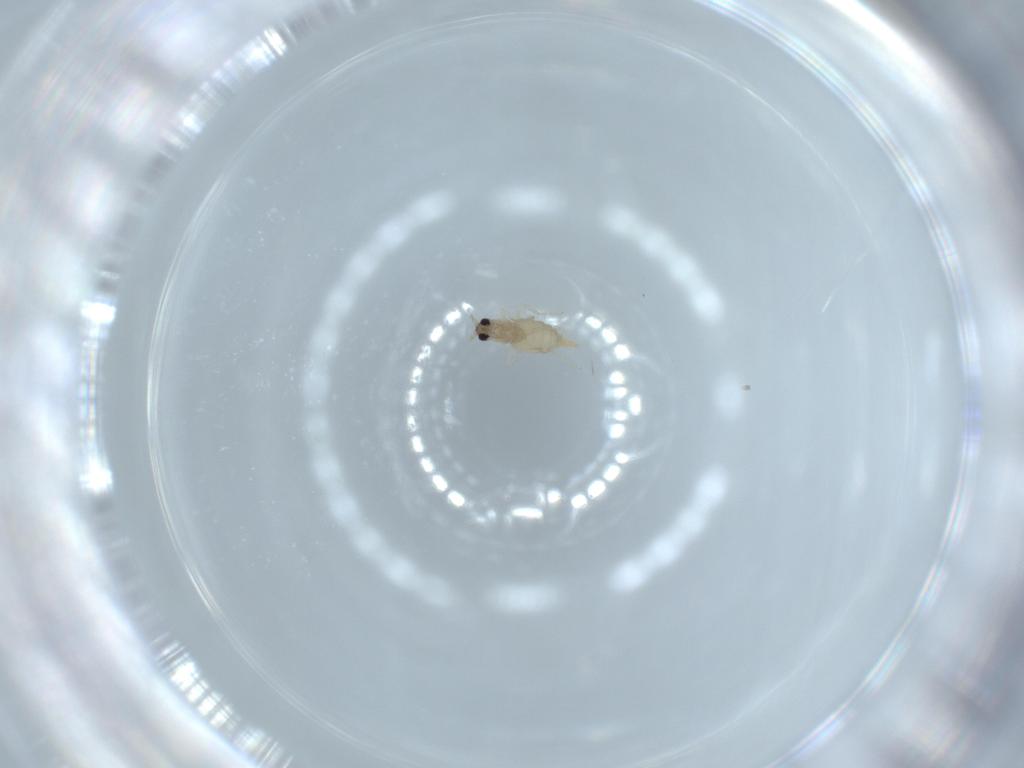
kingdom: Animalia
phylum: Arthropoda
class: Insecta
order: Diptera
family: Cecidomyiidae
